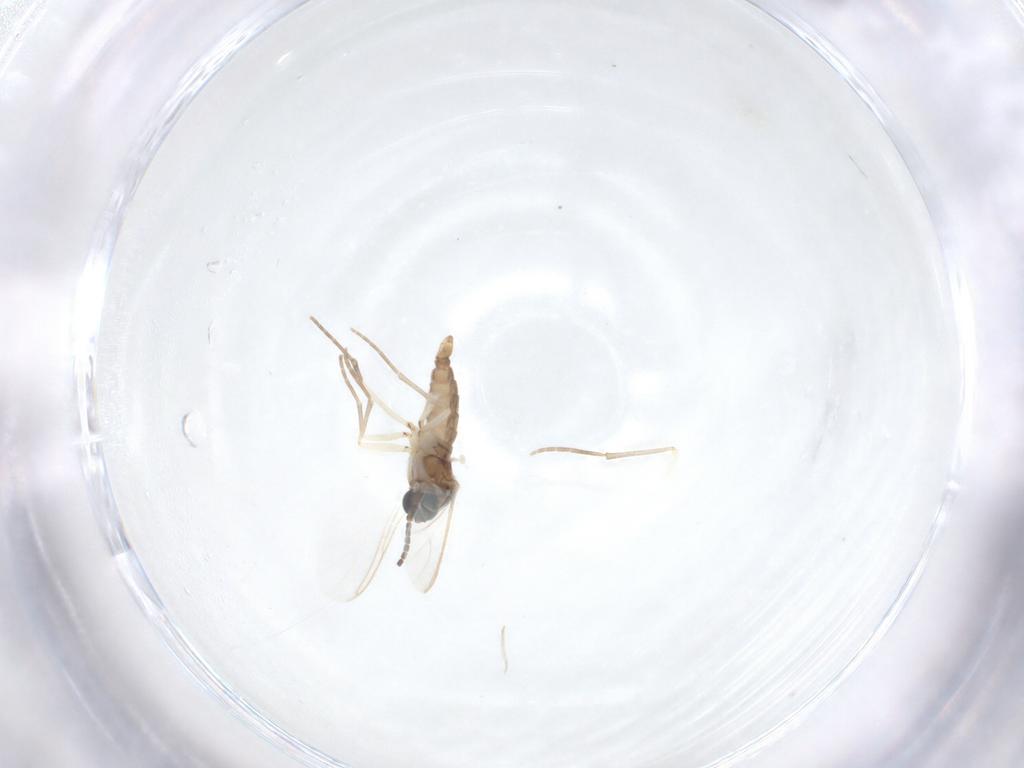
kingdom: Animalia
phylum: Arthropoda
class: Insecta
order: Diptera
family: Sciaridae
